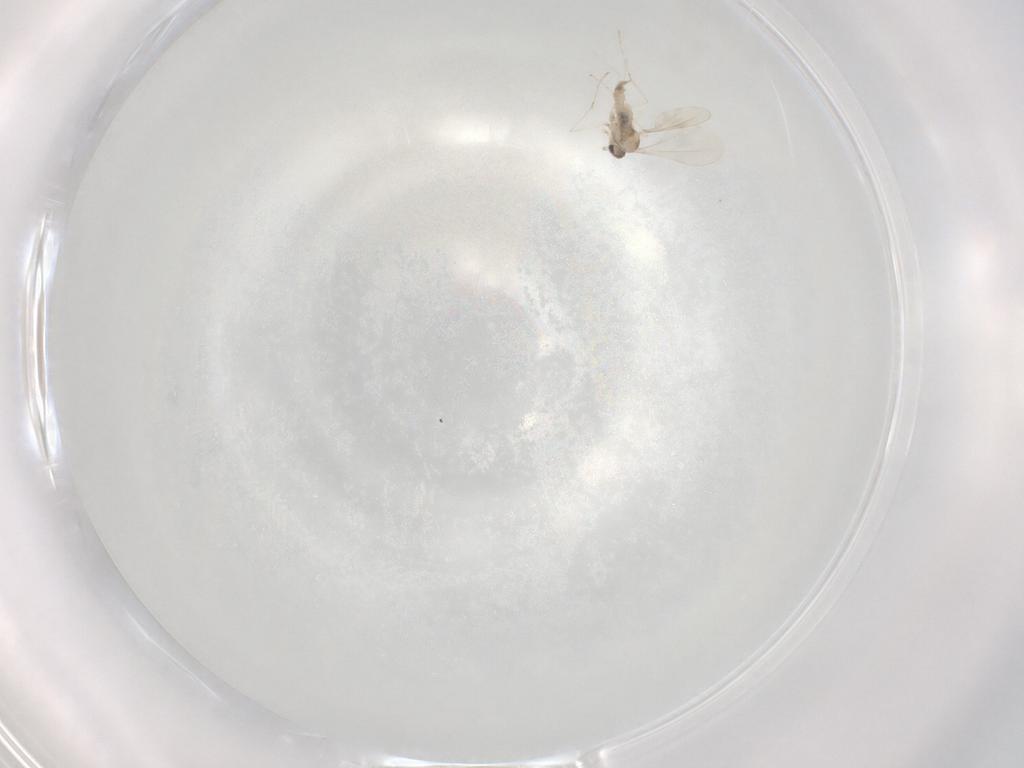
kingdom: Animalia
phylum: Arthropoda
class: Insecta
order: Diptera
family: Cecidomyiidae
